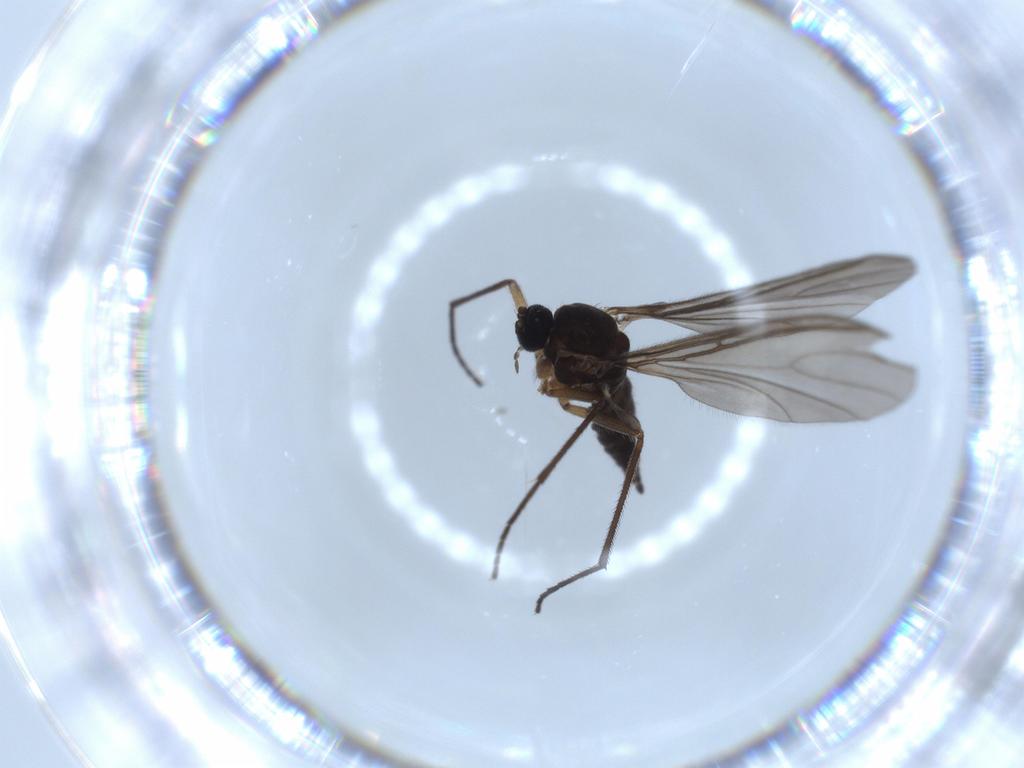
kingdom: Animalia
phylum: Arthropoda
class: Insecta
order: Diptera
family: Sciaridae
